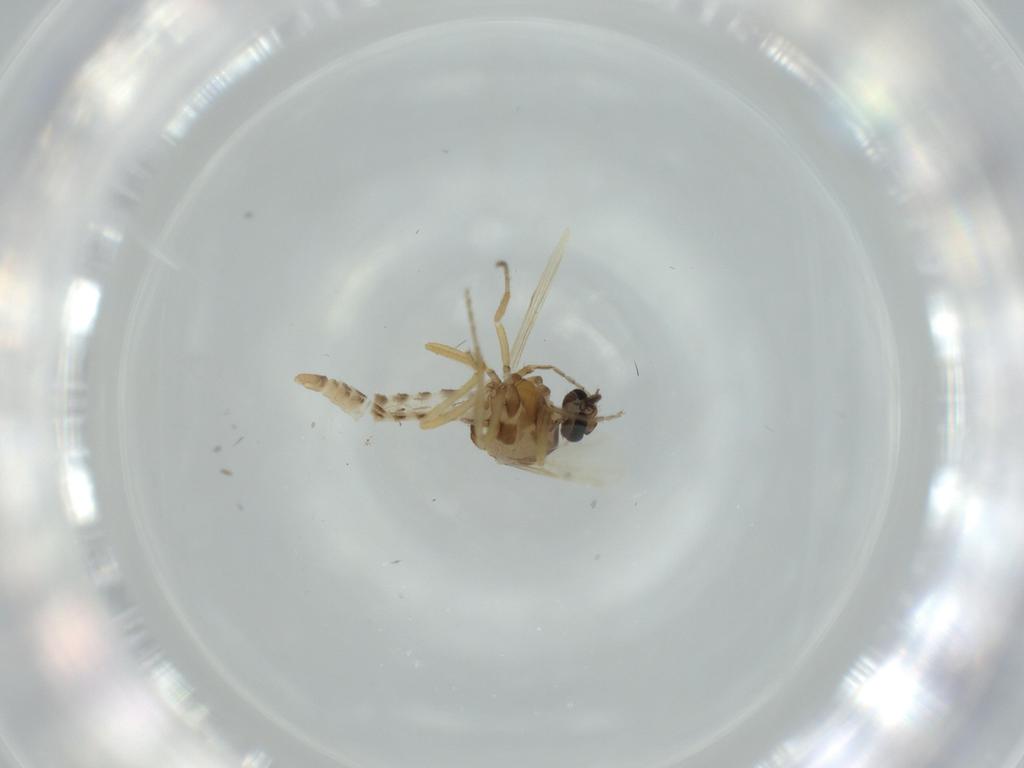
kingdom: Animalia
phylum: Arthropoda
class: Insecta
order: Diptera
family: Ceratopogonidae
